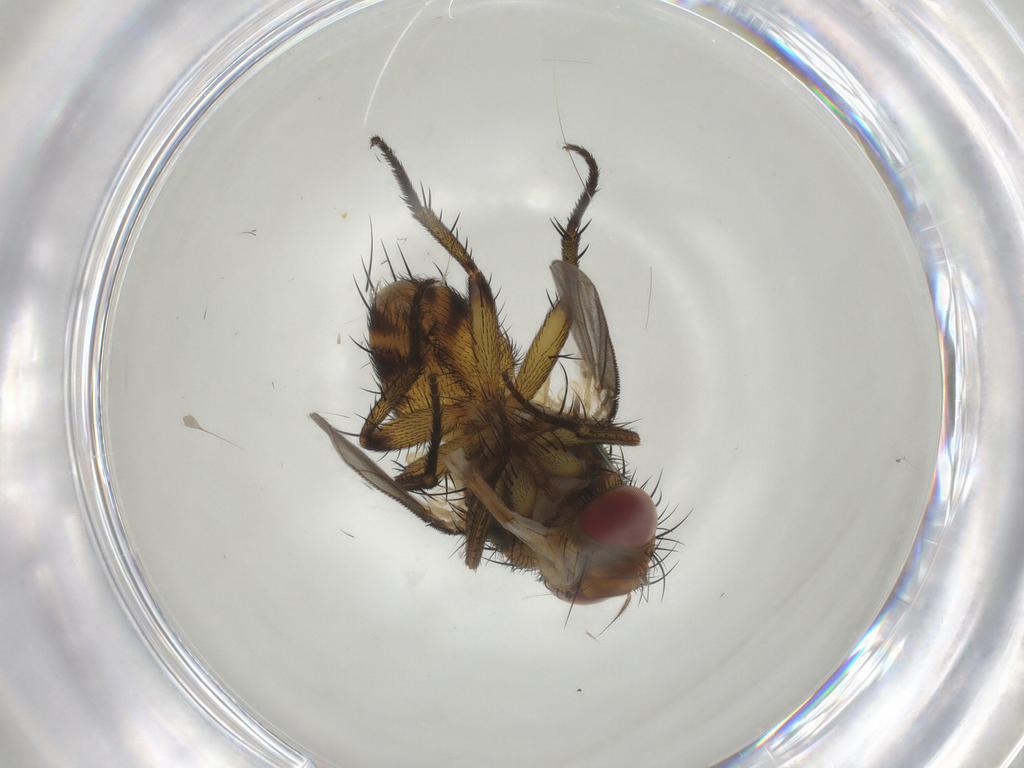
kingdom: Animalia
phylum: Arthropoda
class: Insecta
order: Diptera
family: Tachinidae
